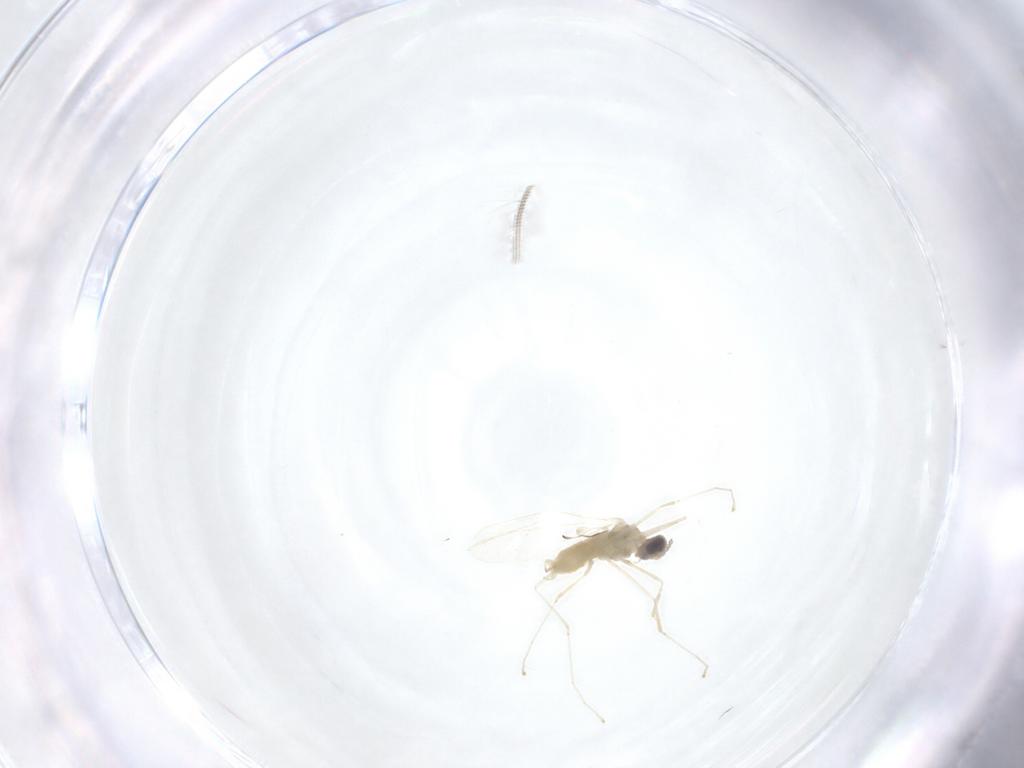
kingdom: Animalia
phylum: Arthropoda
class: Insecta
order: Diptera
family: Cecidomyiidae
